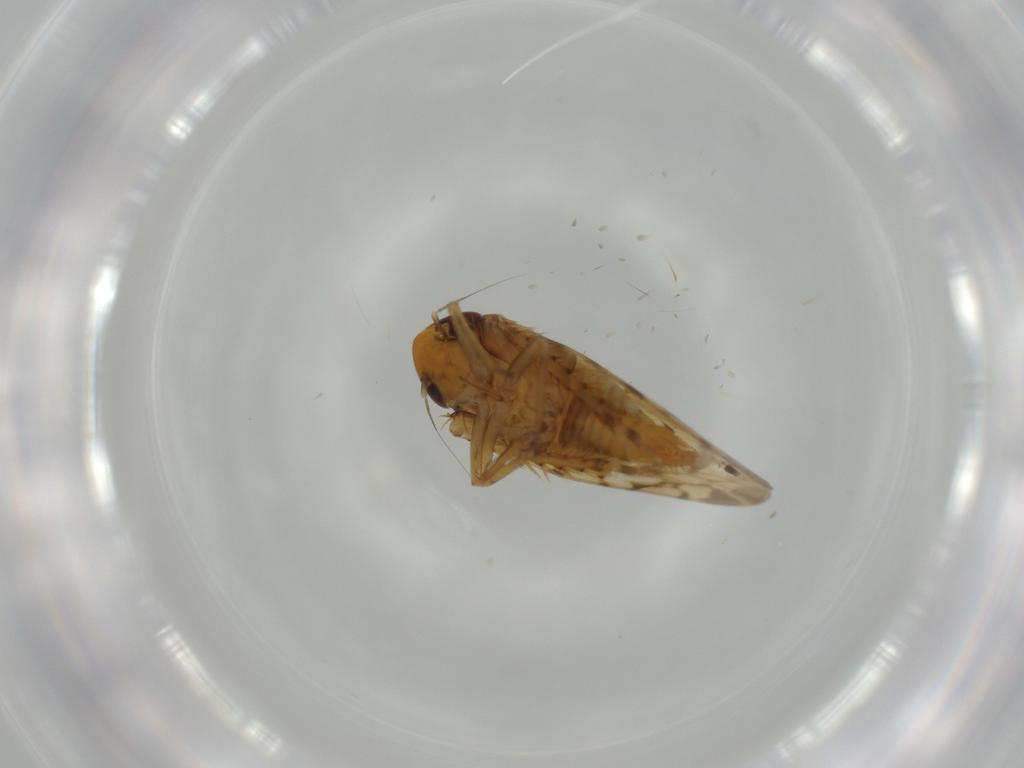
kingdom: Animalia
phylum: Arthropoda
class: Insecta
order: Hemiptera
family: Cicadellidae
